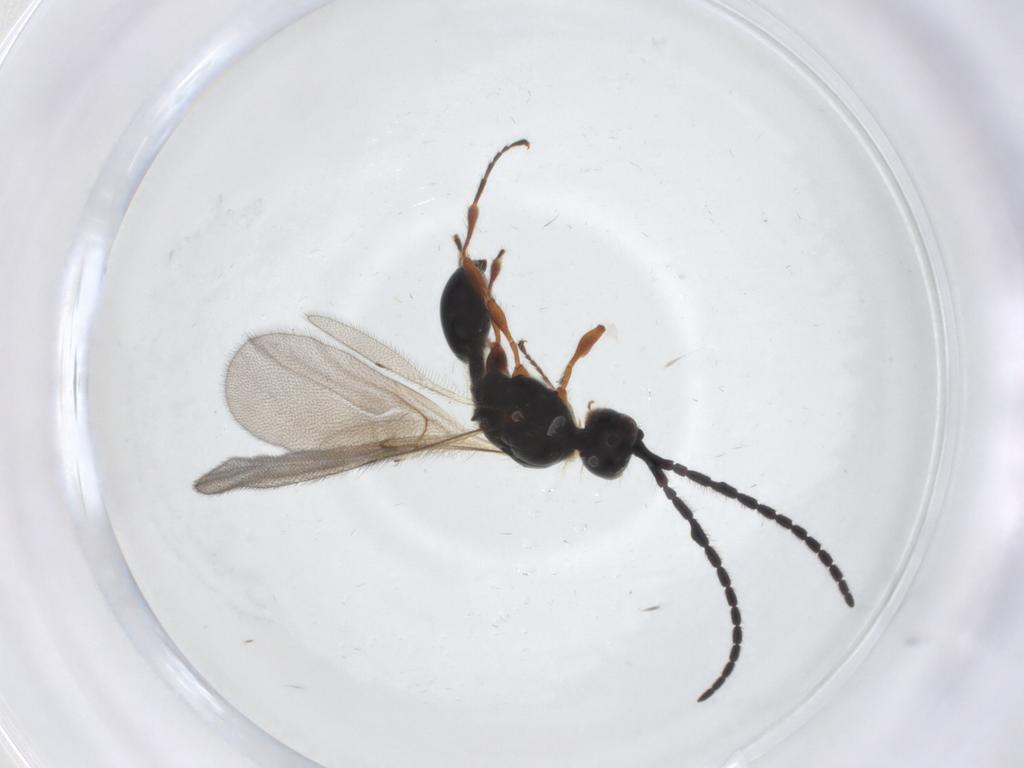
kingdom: Animalia
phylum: Arthropoda
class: Insecta
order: Hymenoptera
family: Diapriidae
